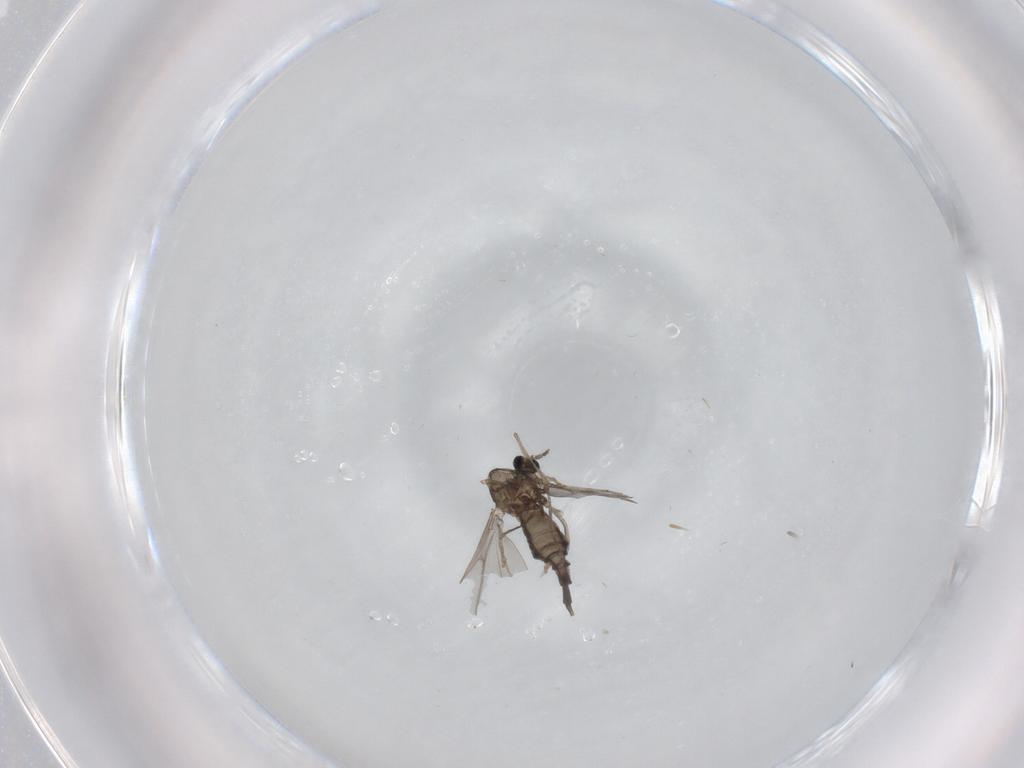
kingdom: Animalia
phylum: Arthropoda
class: Insecta
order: Diptera
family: Cecidomyiidae
